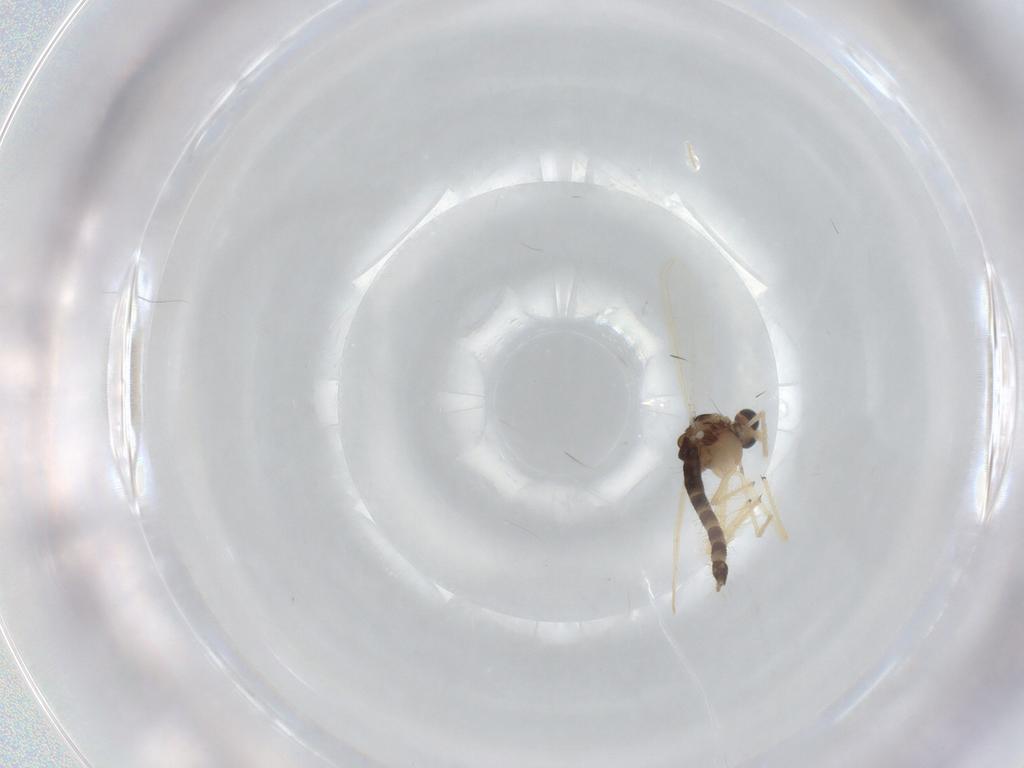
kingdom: Animalia
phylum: Arthropoda
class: Insecta
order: Diptera
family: Chironomidae
